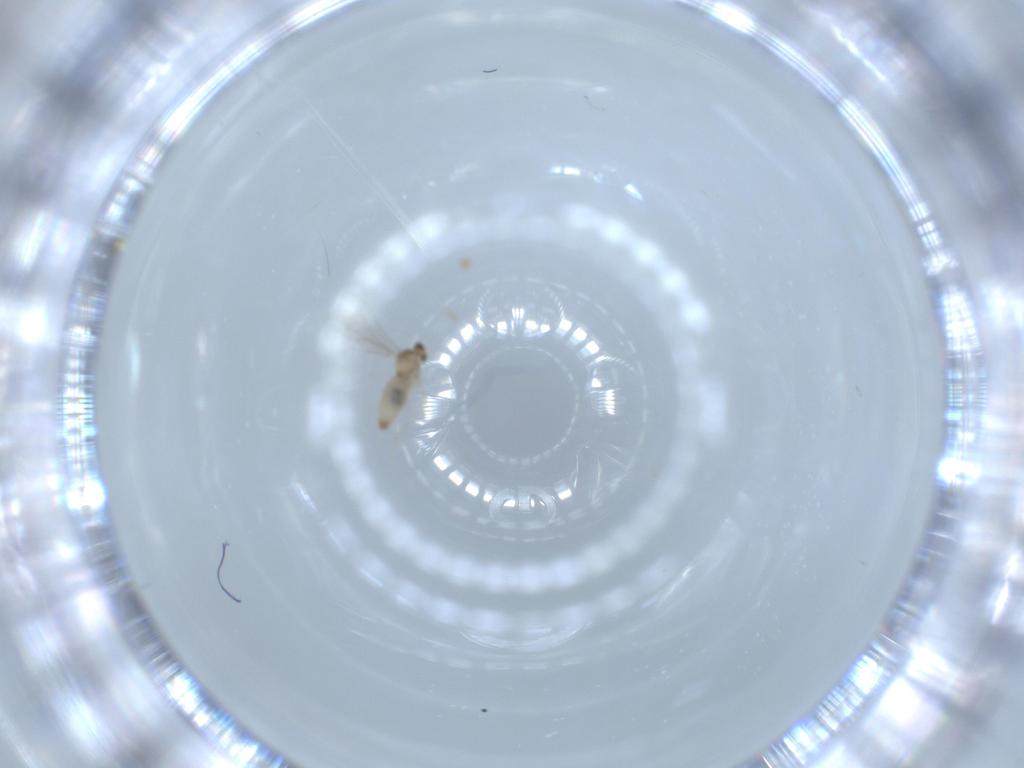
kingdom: Animalia
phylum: Arthropoda
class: Insecta
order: Diptera
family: Cecidomyiidae
